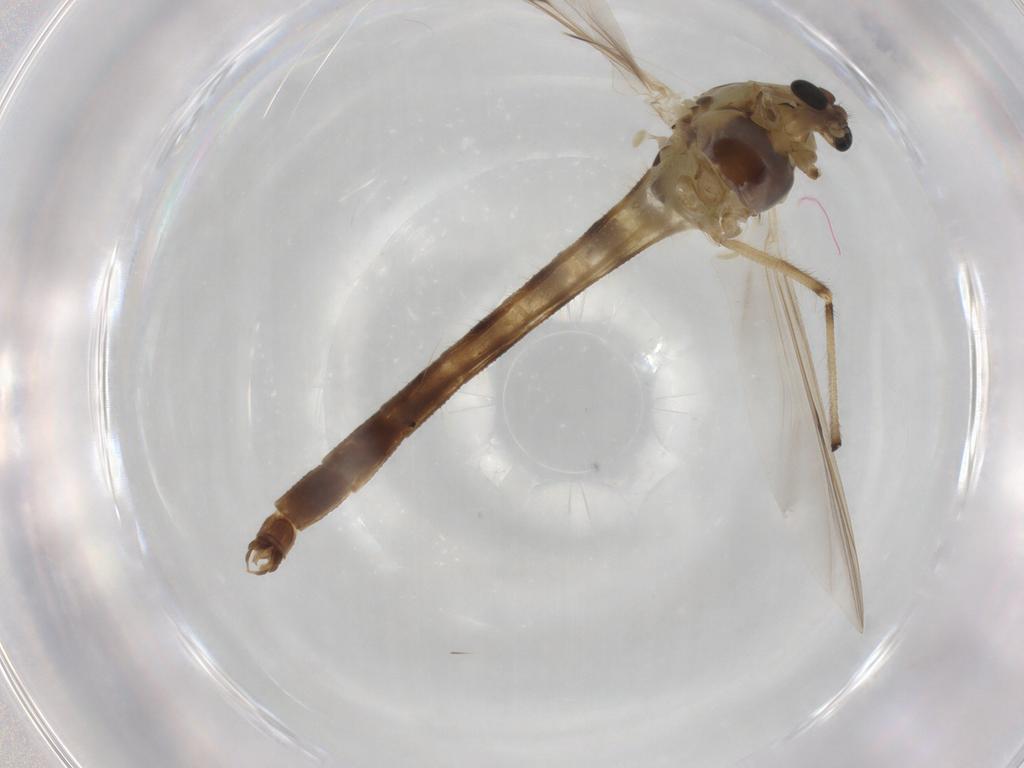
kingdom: Animalia
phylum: Arthropoda
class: Insecta
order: Diptera
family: Anthomyiidae
